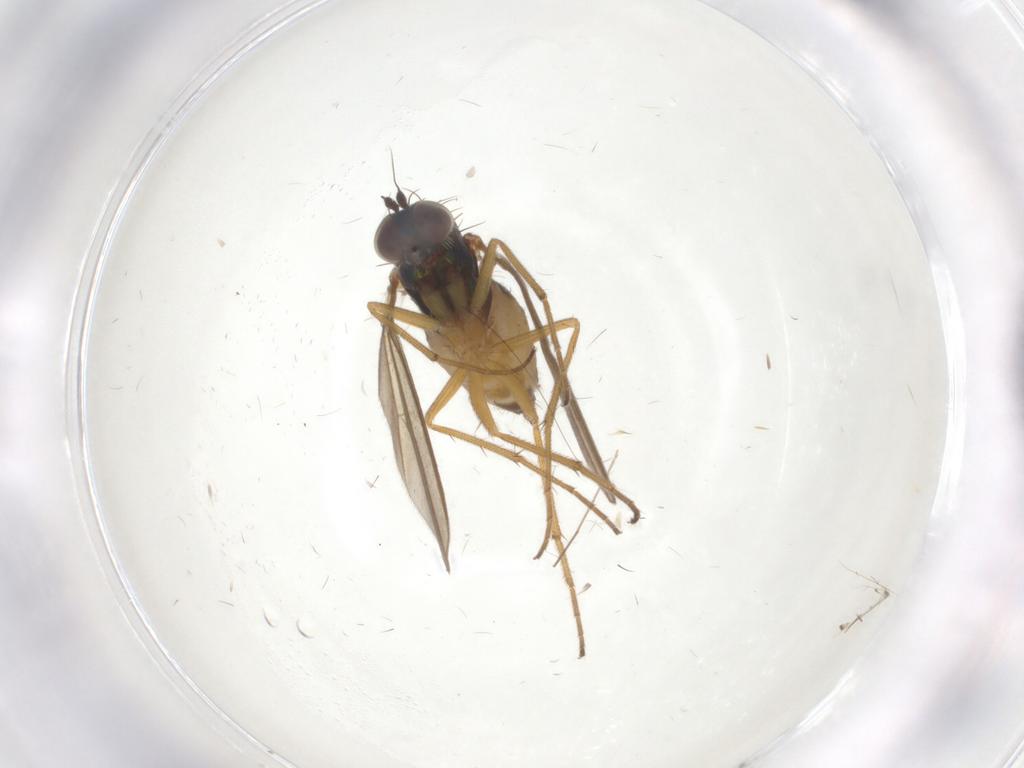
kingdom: Animalia
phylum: Arthropoda
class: Insecta
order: Diptera
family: Dolichopodidae
